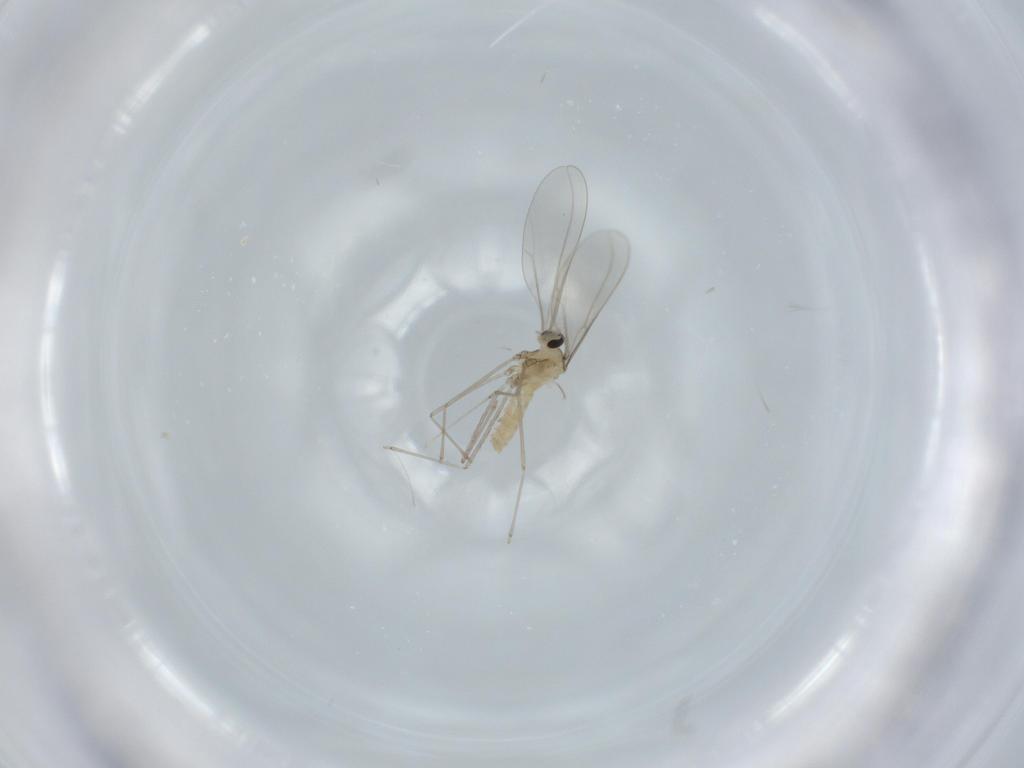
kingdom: Animalia
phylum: Arthropoda
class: Insecta
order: Diptera
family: Cecidomyiidae
